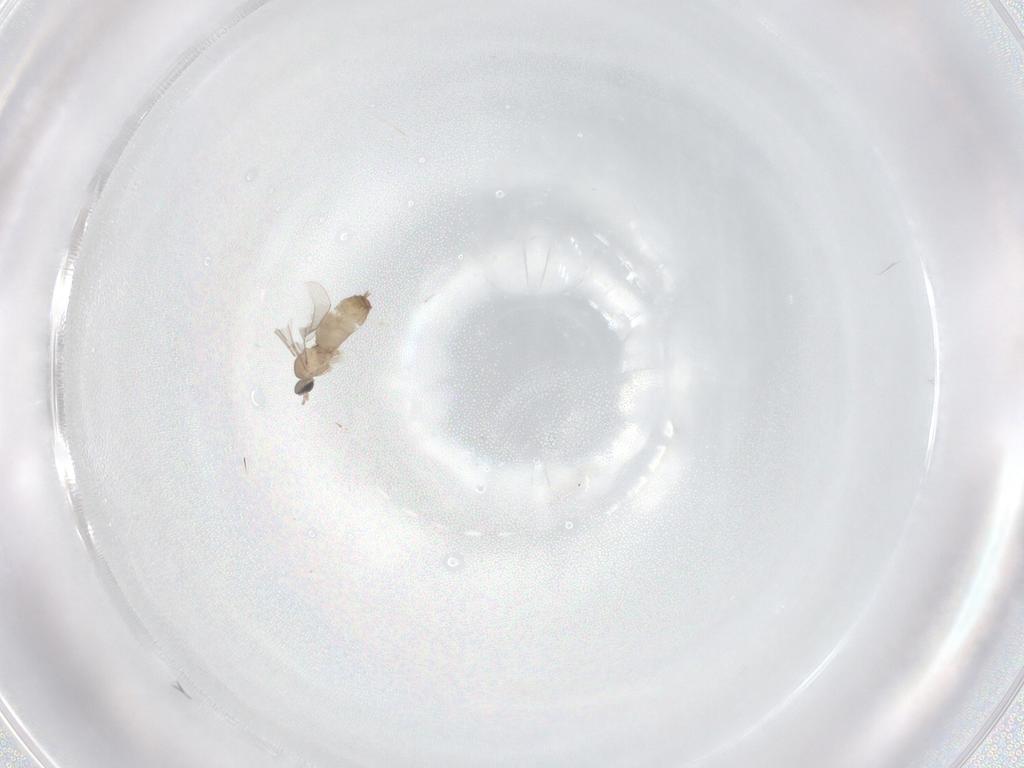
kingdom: Animalia
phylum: Arthropoda
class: Insecta
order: Diptera
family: Cecidomyiidae
